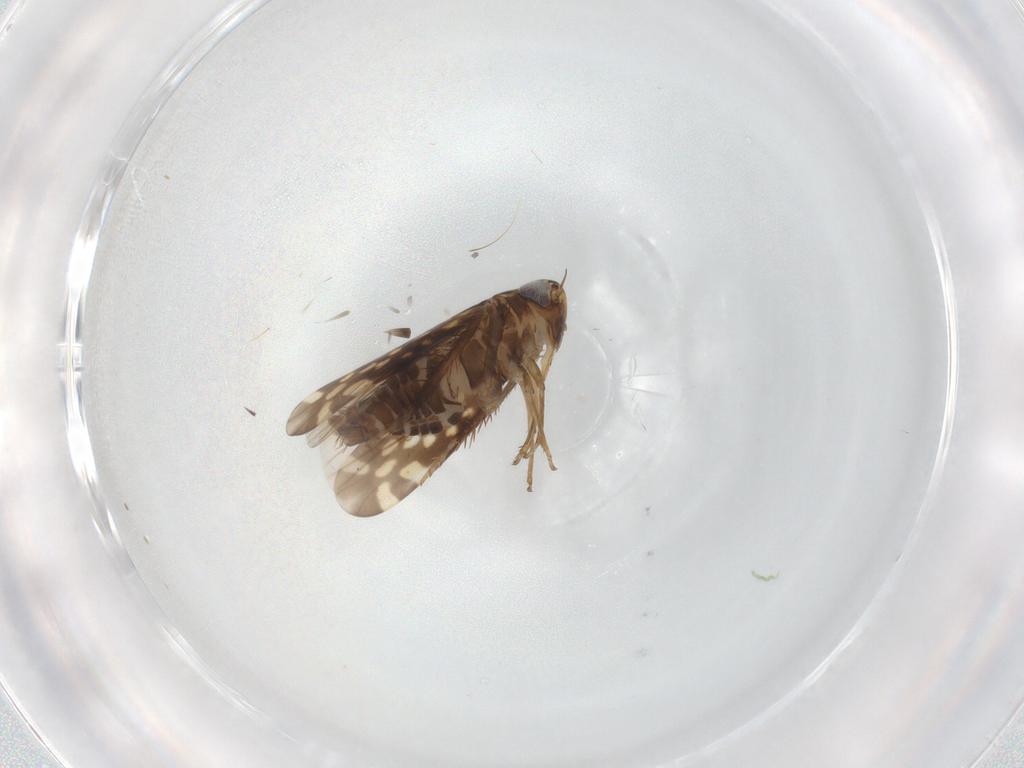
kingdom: Animalia
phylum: Arthropoda
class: Insecta
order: Hemiptera
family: Cicadellidae
